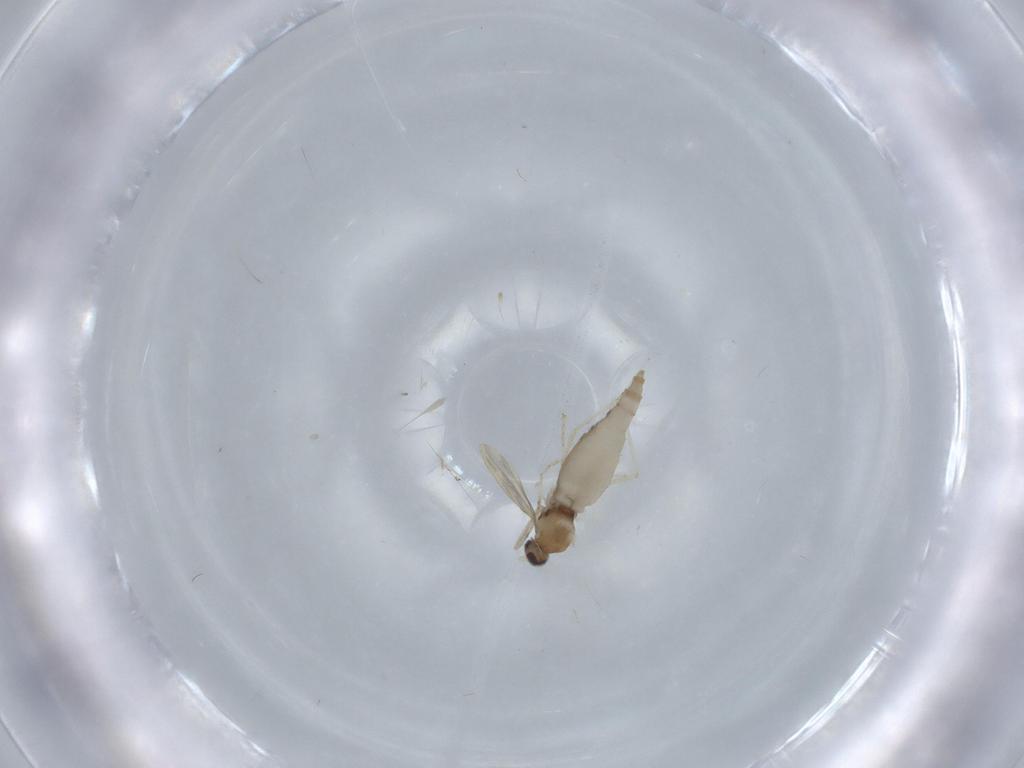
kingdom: Animalia
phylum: Arthropoda
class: Insecta
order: Diptera
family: Cecidomyiidae
